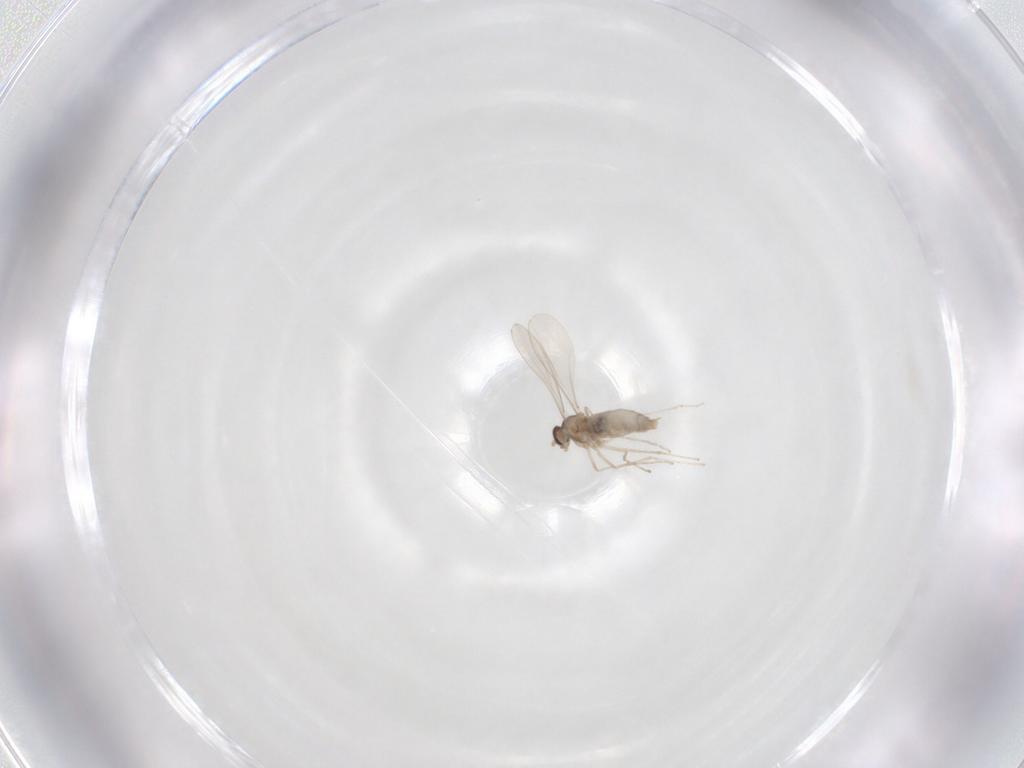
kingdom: Animalia
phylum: Arthropoda
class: Insecta
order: Diptera
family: Cecidomyiidae
